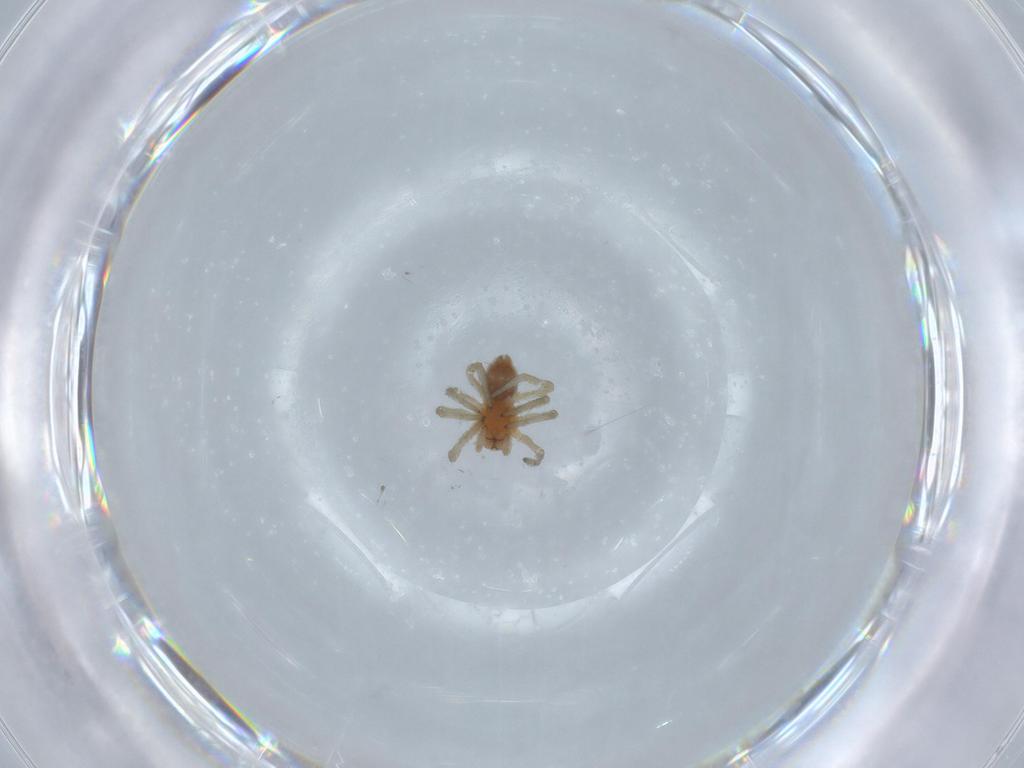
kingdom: Animalia
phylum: Arthropoda
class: Arachnida
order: Araneae
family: Dictynidae
